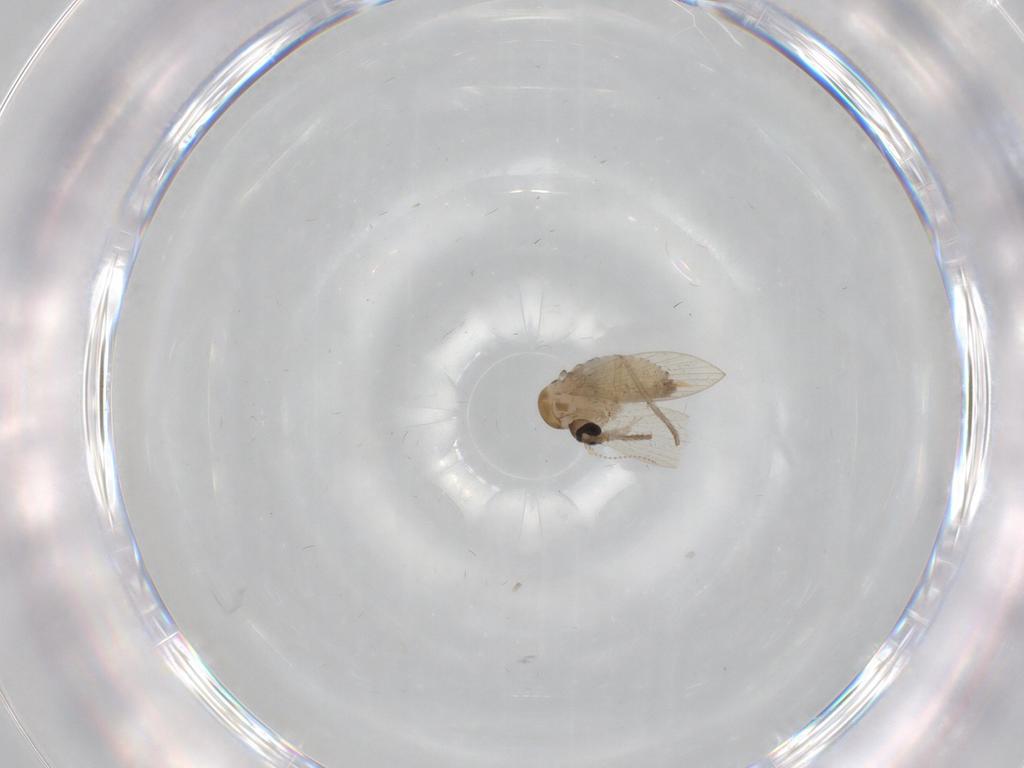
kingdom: Animalia
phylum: Arthropoda
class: Insecta
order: Diptera
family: Psychodidae
